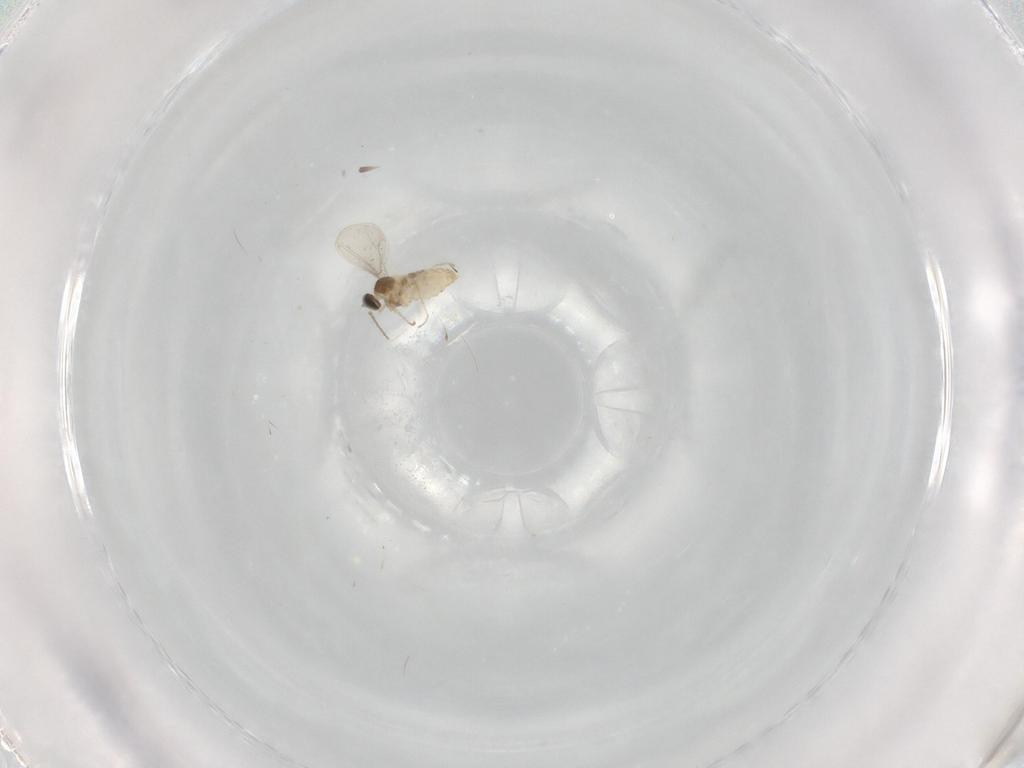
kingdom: Animalia
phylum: Arthropoda
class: Insecta
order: Diptera
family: Cecidomyiidae
